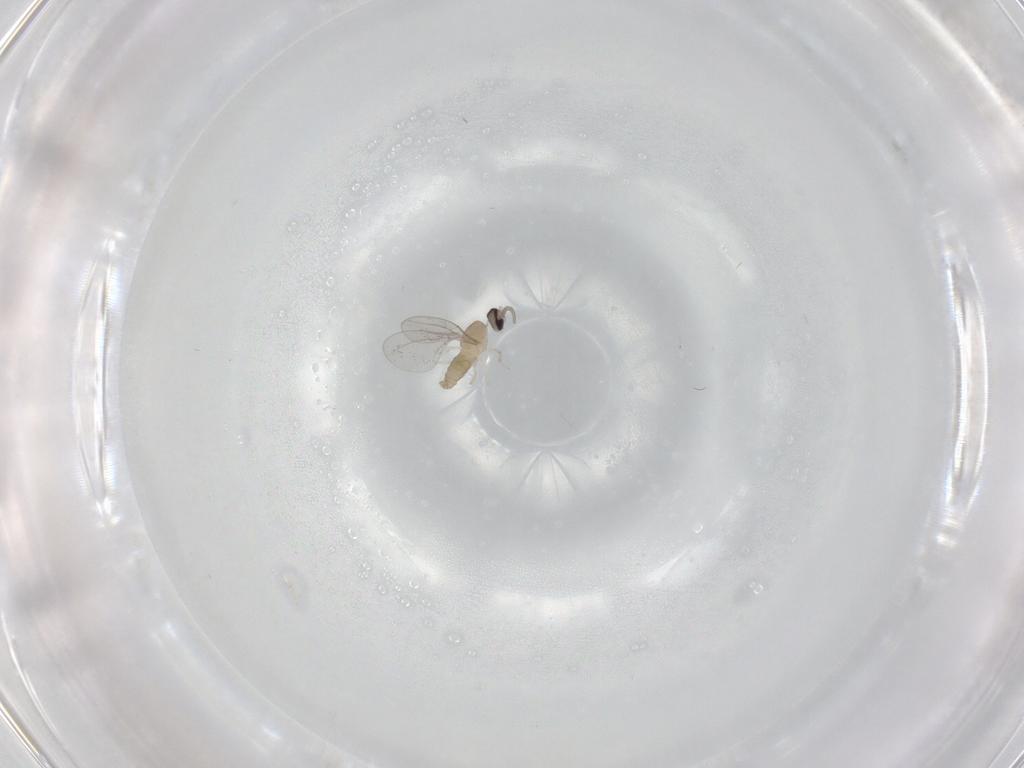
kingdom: Animalia
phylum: Arthropoda
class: Insecta
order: Diptera
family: Cecidomyiidae
